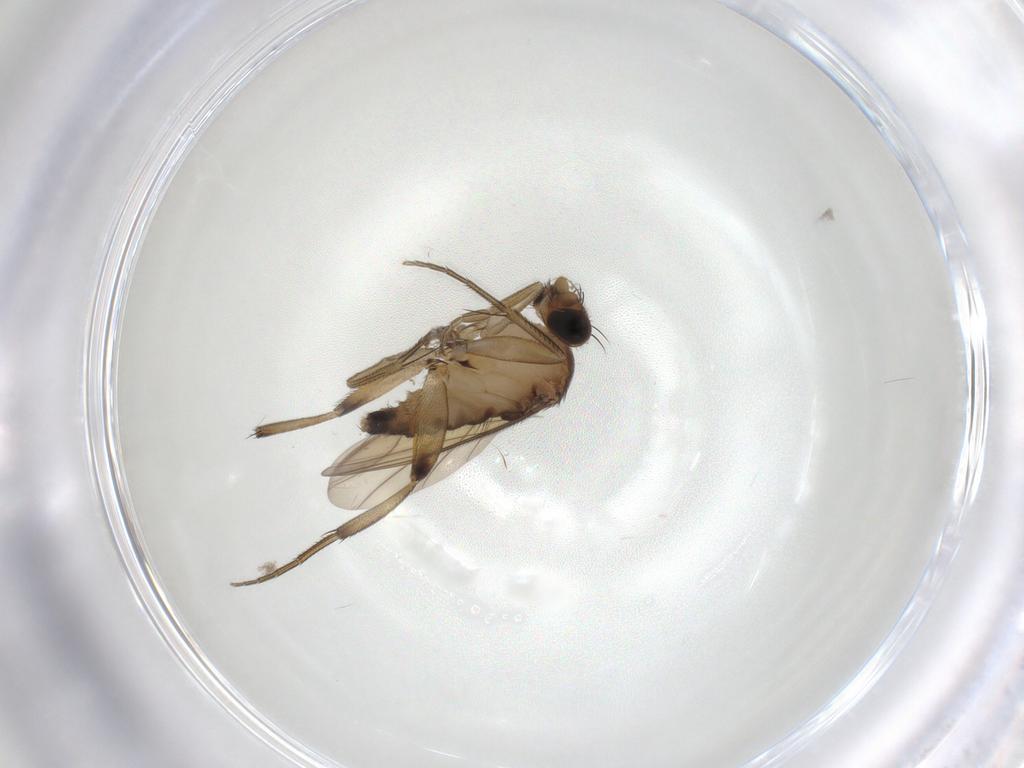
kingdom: Animalia
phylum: Arthropoda
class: Insecta
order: Diptera
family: Phoridae
